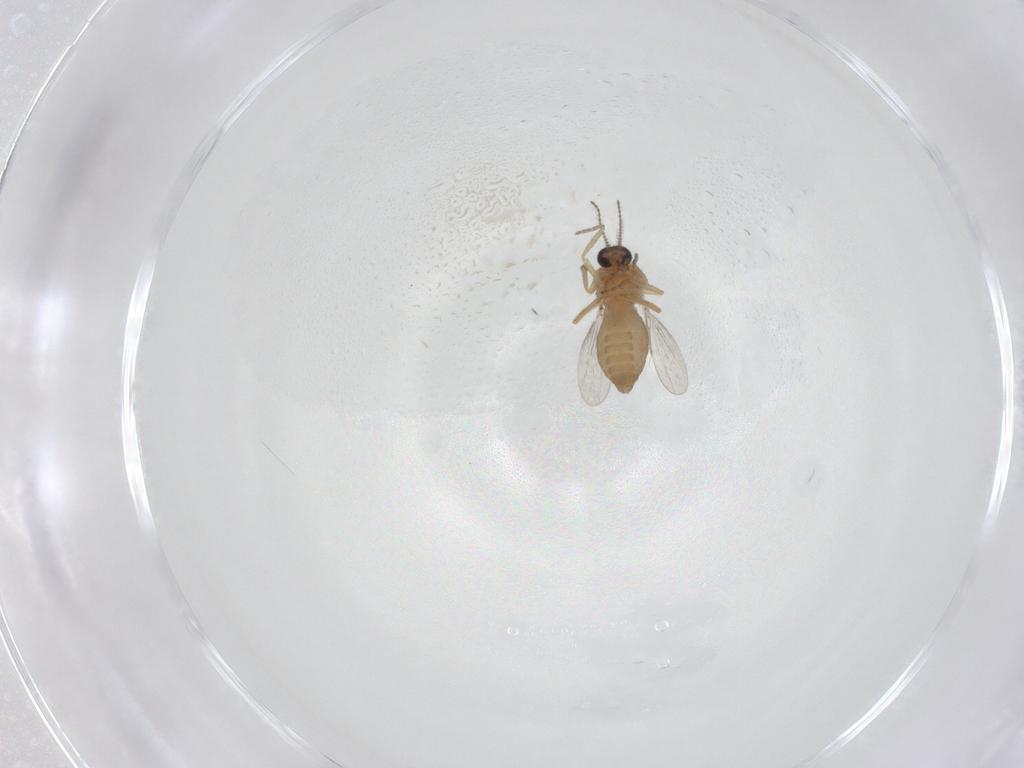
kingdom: Animalia
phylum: Arthropoda
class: Insecta
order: Diptera
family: Ceratopogonidae
